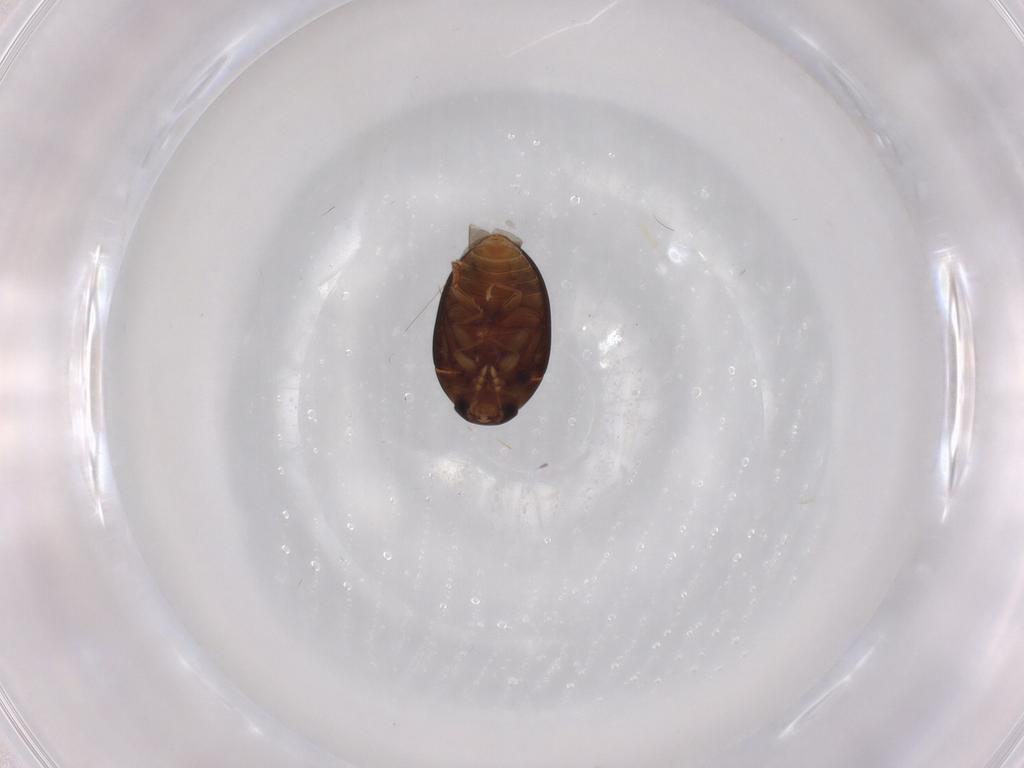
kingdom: Animalia
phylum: Arthropoda
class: Insecta
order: Coleoptera
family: Chrysomelidae
